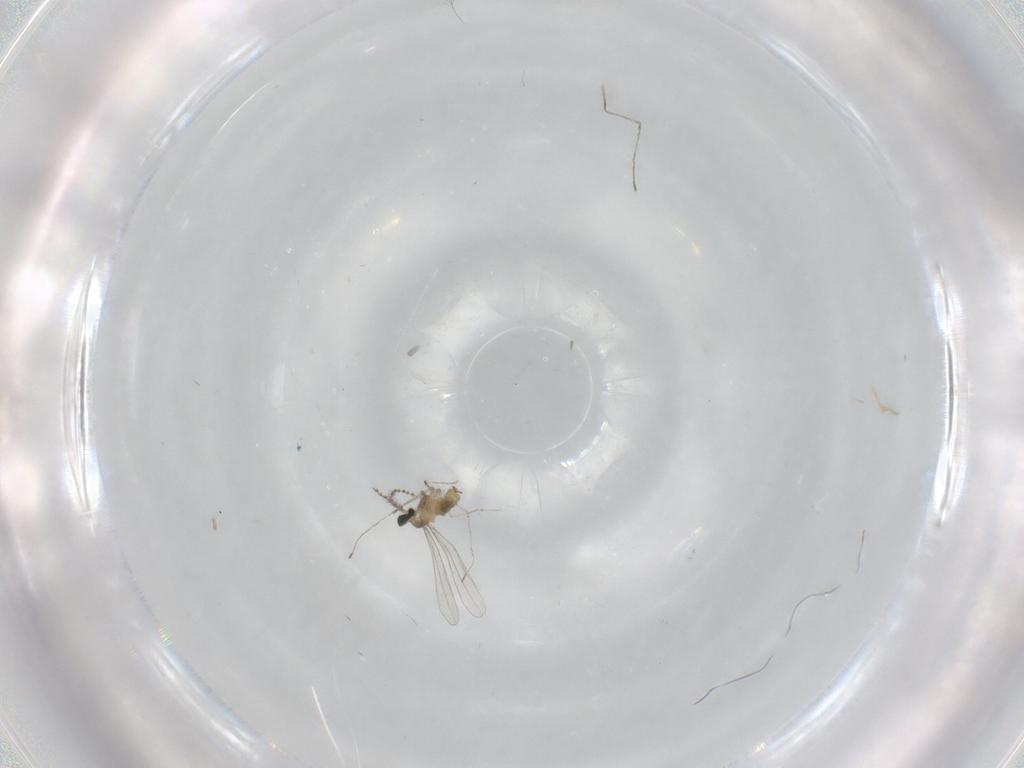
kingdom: Animalia
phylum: Arthropoda
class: Insecta
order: Diptera
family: Cecidomyiidae
